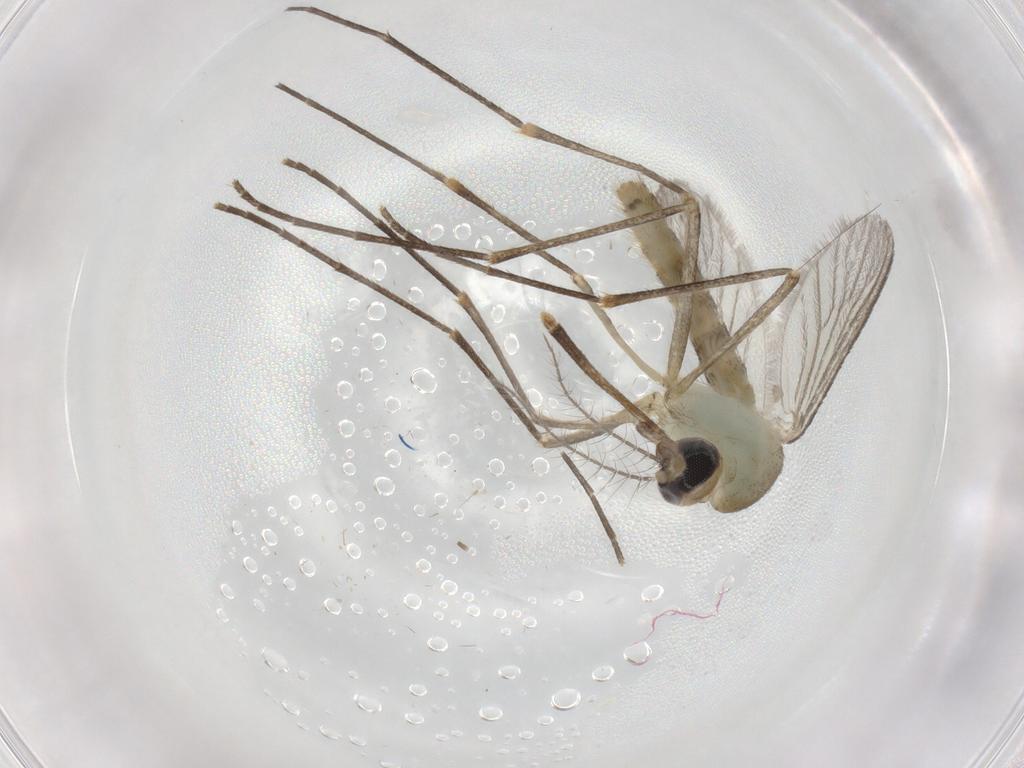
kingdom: Animalia
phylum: Arthropoda
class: Insecta
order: Diptera
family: Culicidae
